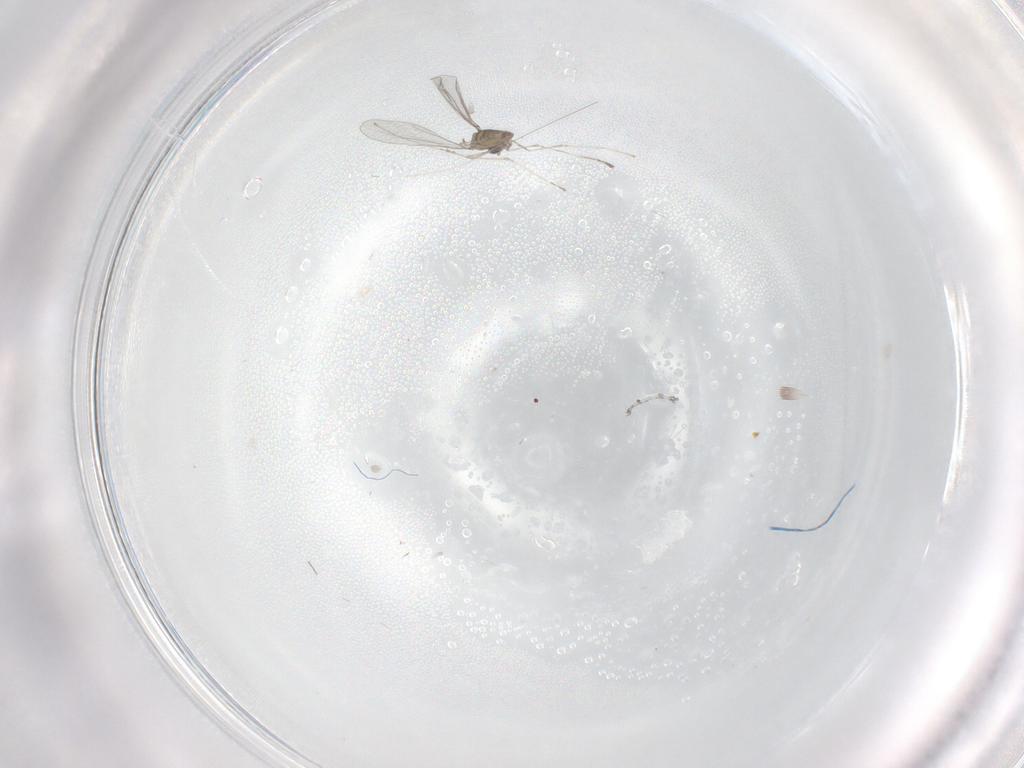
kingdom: Animalia
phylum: Arthropoda
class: Insecta
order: Diptera
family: Cecidomyiidae
